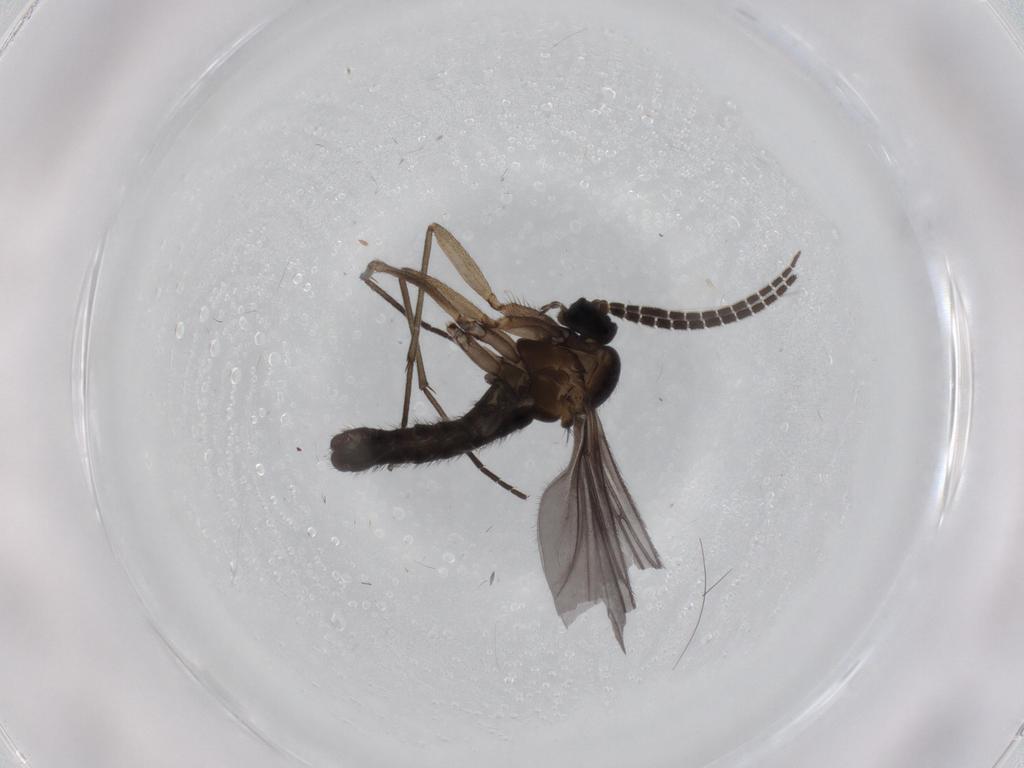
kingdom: Animalia
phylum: Arthropoda
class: Insecta
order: Diptera
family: Sciaridae
